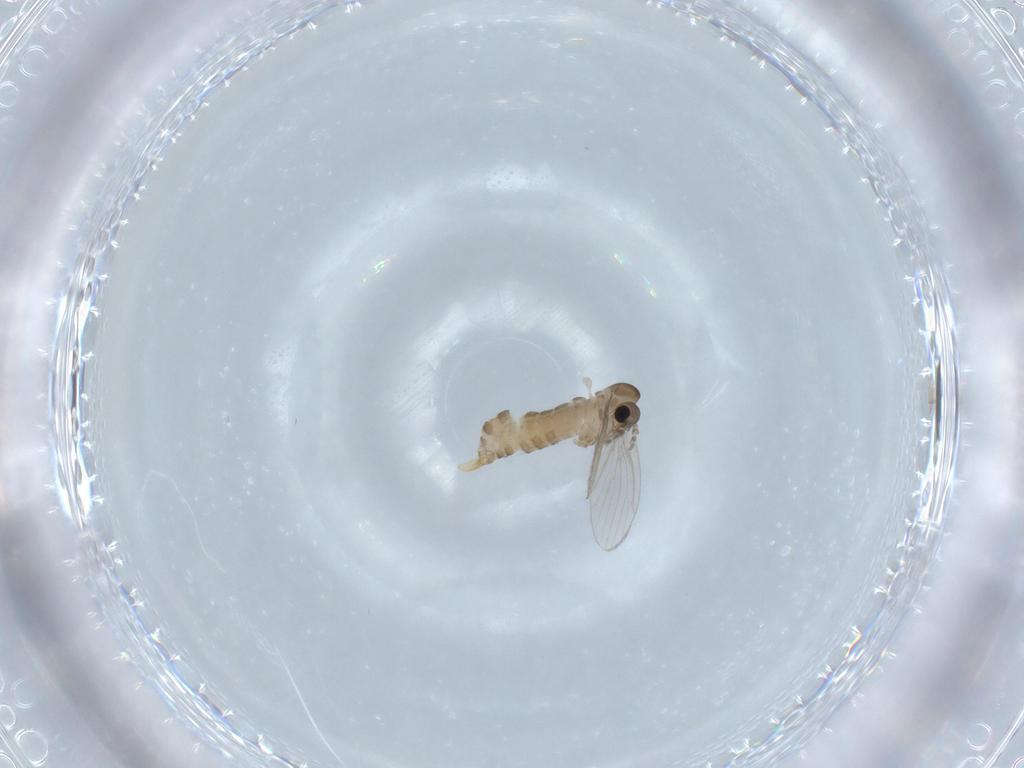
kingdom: Animalia
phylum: Arthropoda
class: Insecta
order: Diptera
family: Psychodidae
